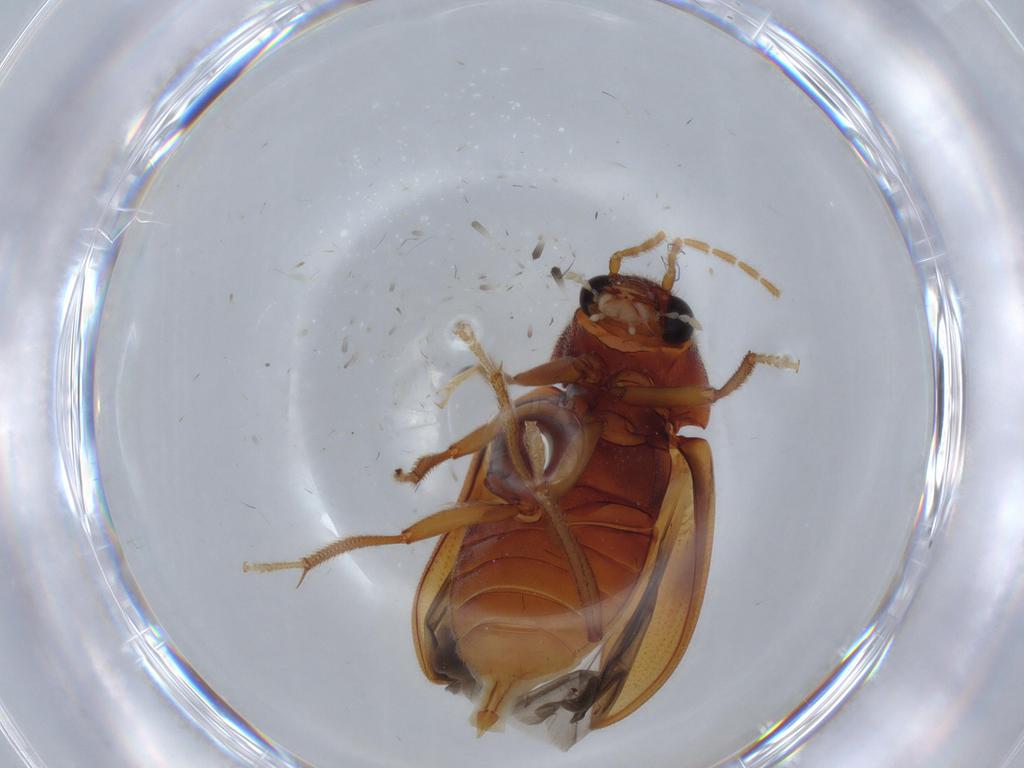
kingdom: Animalia
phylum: Arthropoda
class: Insecta
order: Coleoptera
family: Ptilodactylidae
